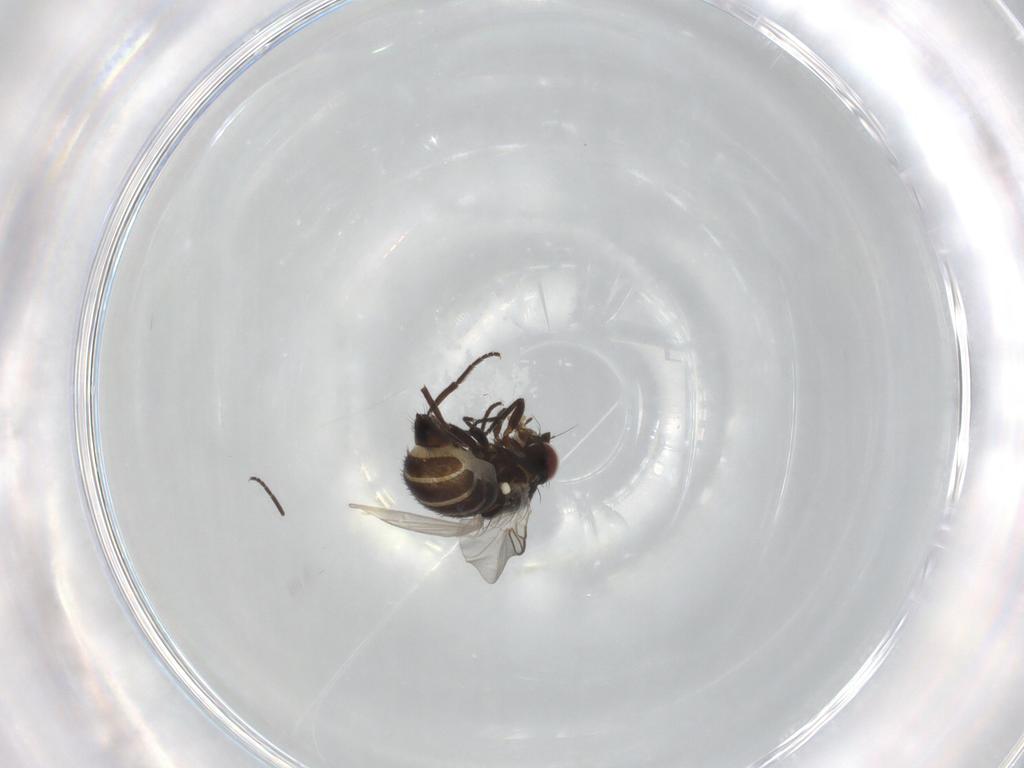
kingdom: Animalia
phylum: Arthropoda
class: Insecta
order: Diptera
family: Hybotidae
